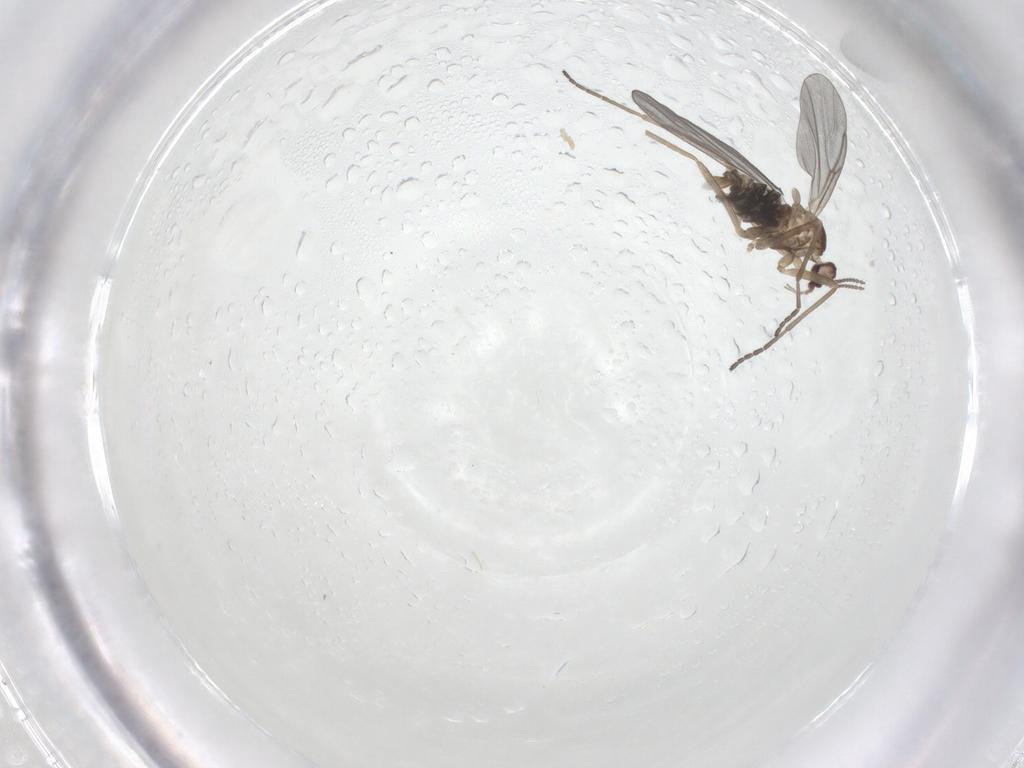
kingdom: Animalia
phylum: Arthropoda
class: Insecta
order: Diptera
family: Cecidomyiidae
